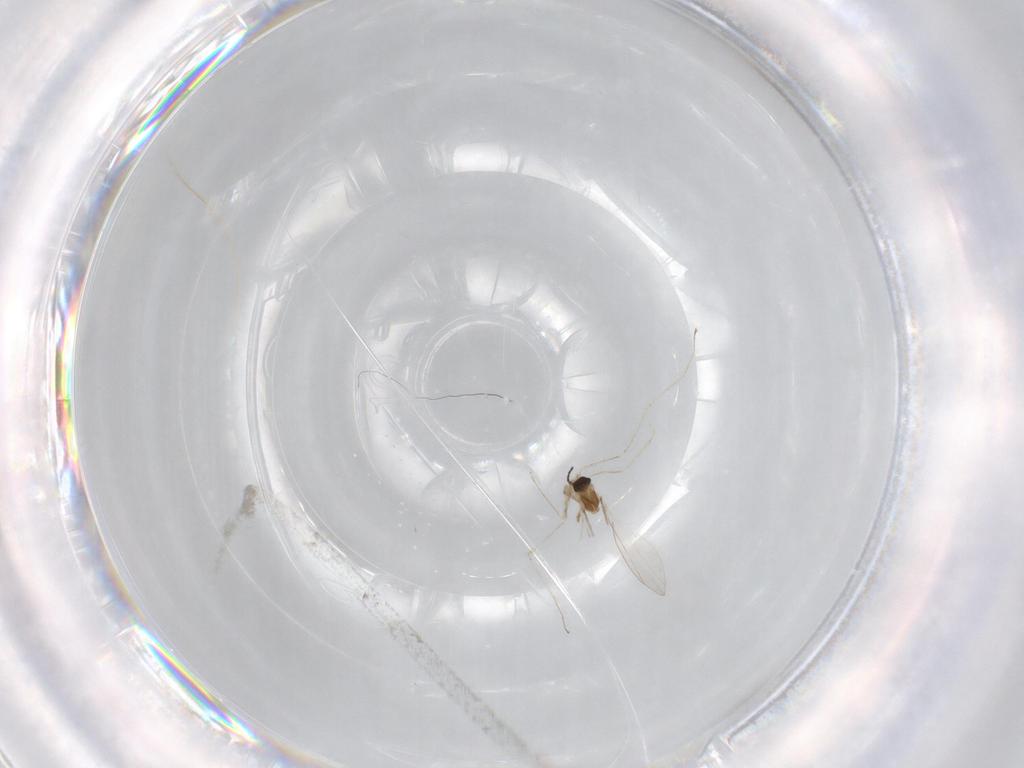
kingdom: Animalia
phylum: Arthropoda
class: Insecta
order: Diptera
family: Cecidomyiidae
